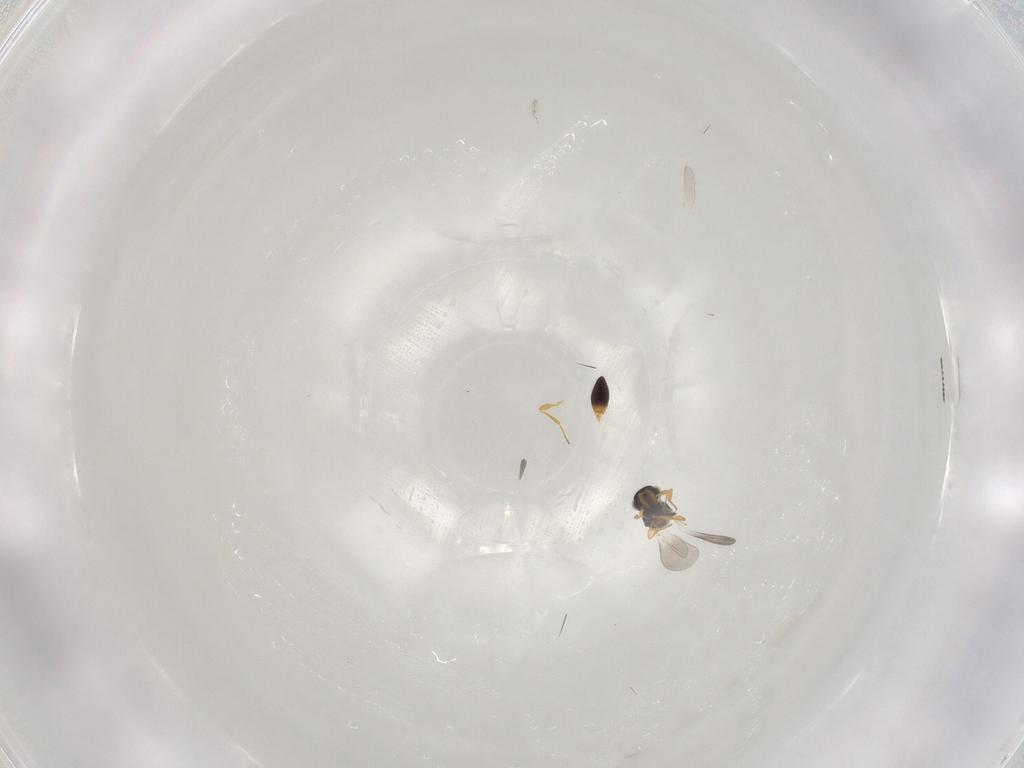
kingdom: Animalia
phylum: Arthropoda
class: Insecta
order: Hymenoptera
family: Platygastridae
